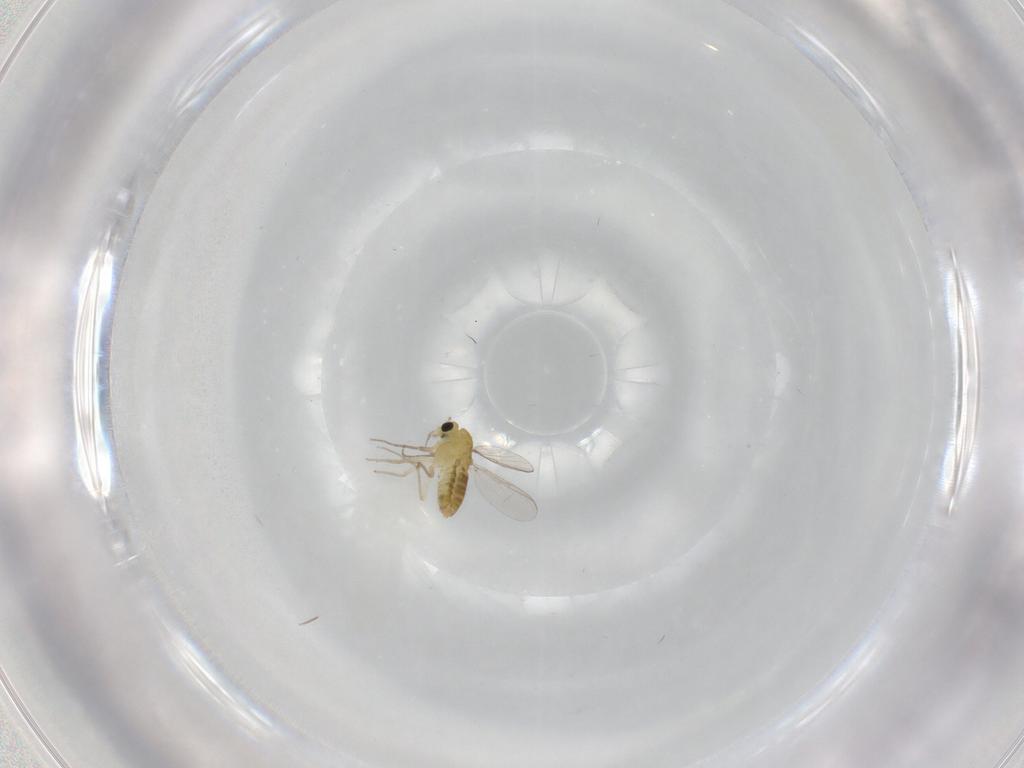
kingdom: Animalia
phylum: Arthropoda
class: Insecta
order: Diptera
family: Chironomidae
